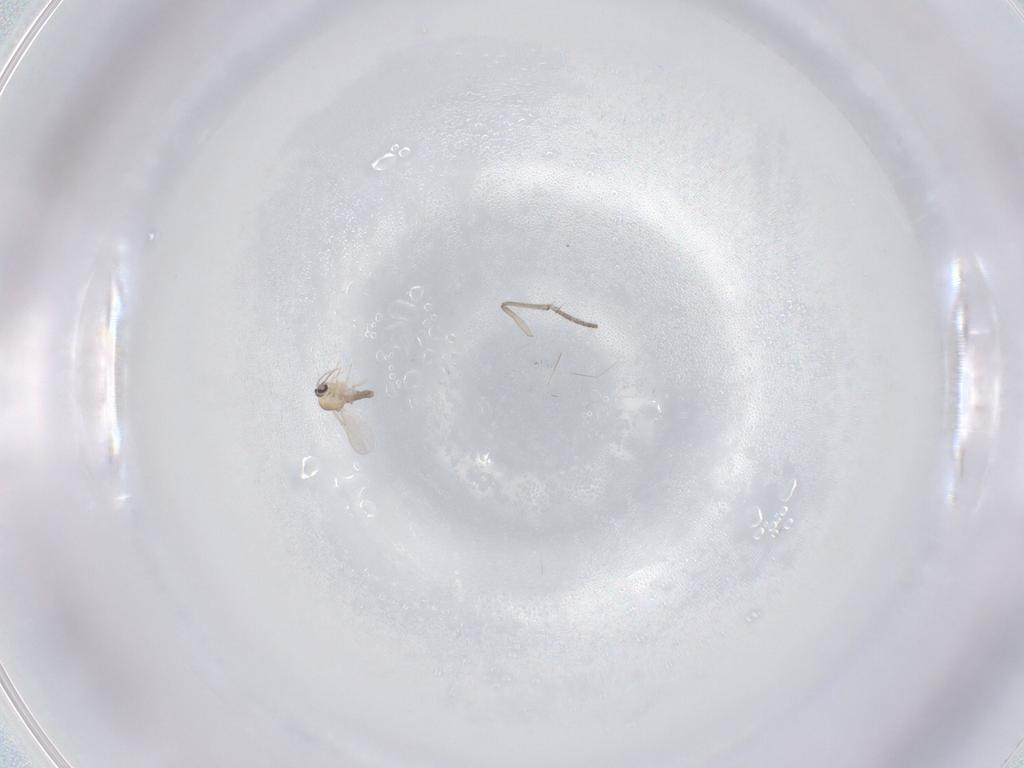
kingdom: Animalia
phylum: Arthropoda
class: Insecta
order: Diptera
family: Ceratopogonidae
